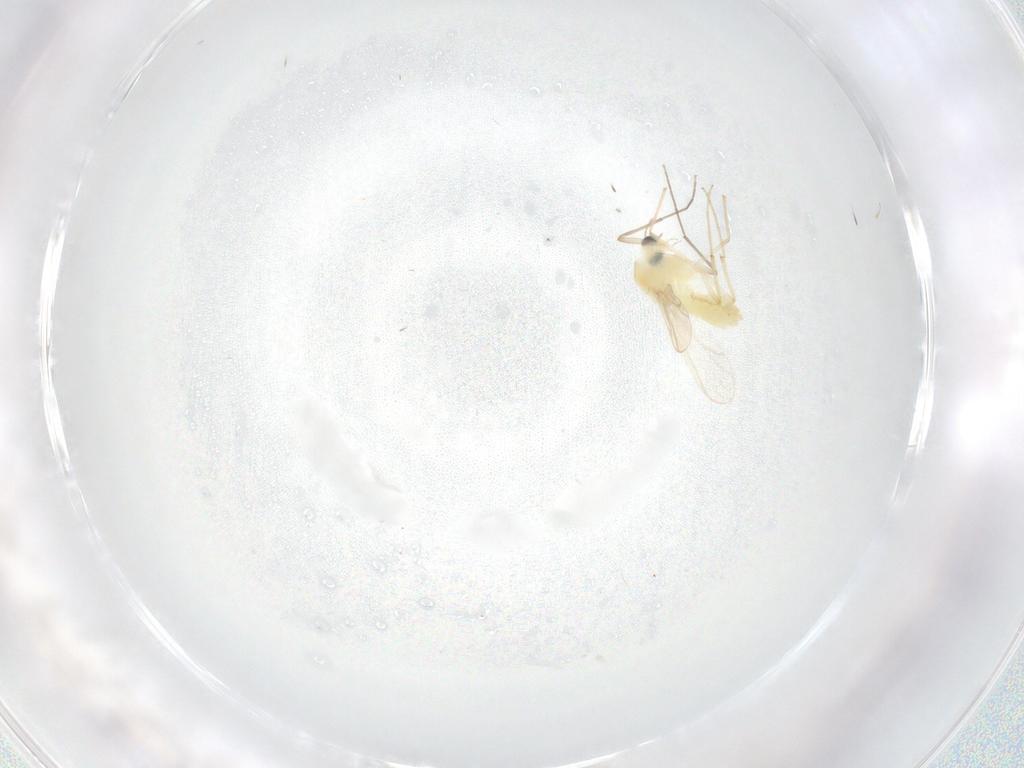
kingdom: Animalia
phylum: Arthropoda
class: Insecta
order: Diptera
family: Chironomidae
